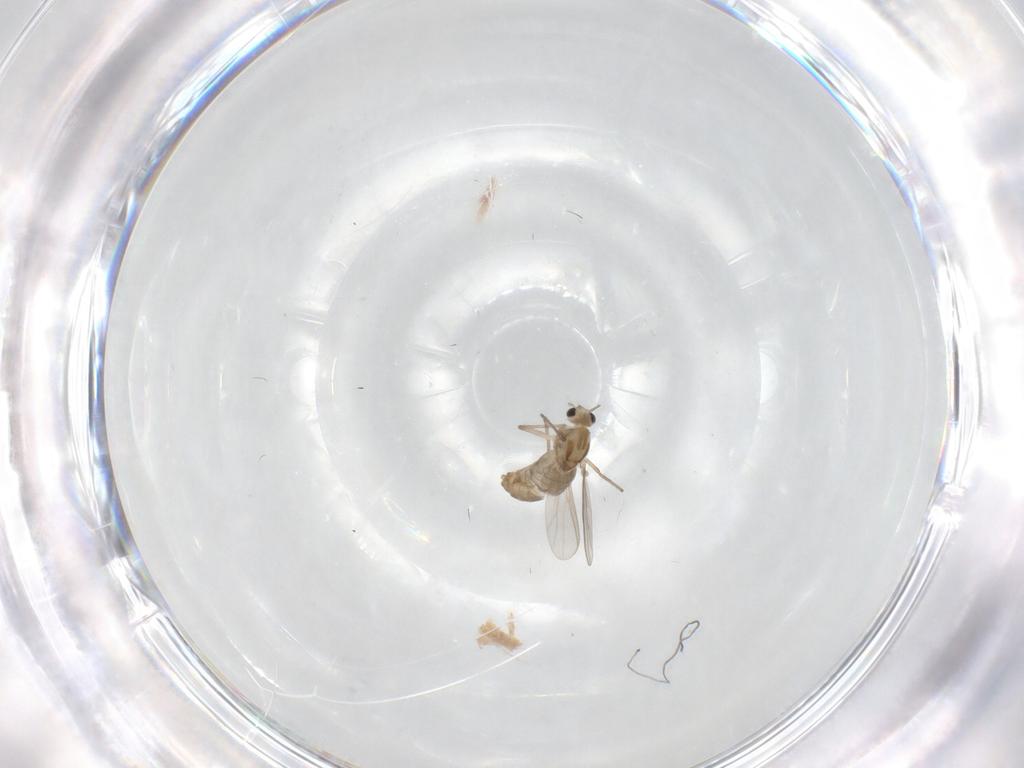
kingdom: Animalia
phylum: Arthropoda
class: Insecta
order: Diptera
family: Chironomidae
